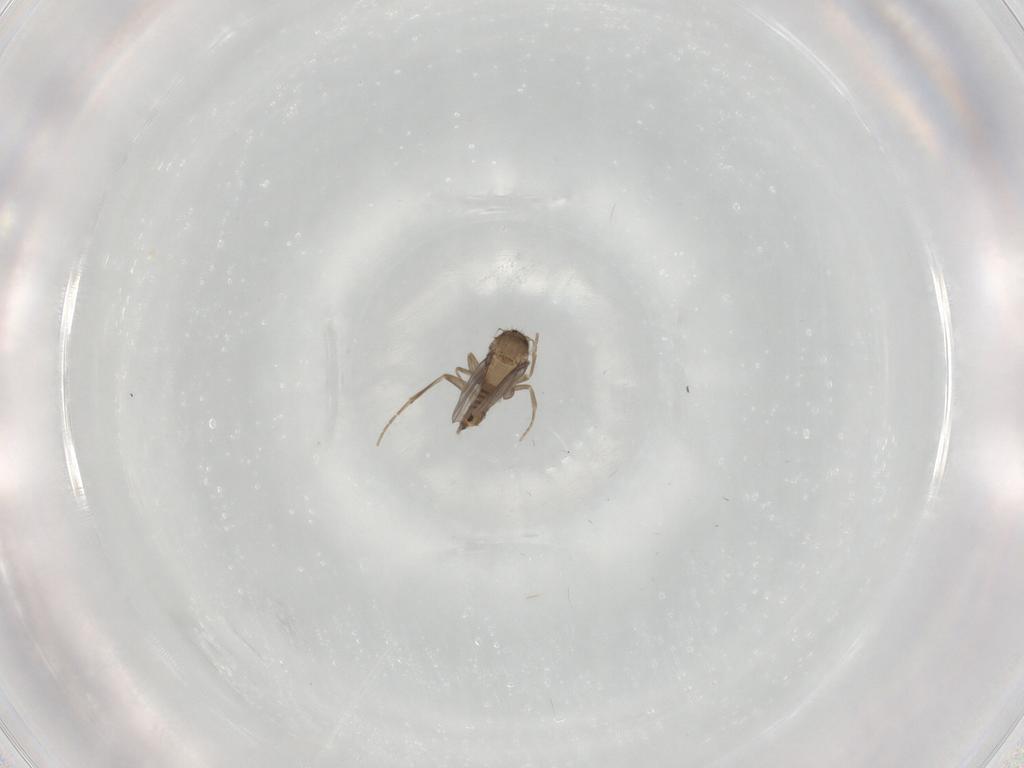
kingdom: Animalia
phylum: Arthropoda
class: Insecta
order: Diptera
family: Sciaridae
